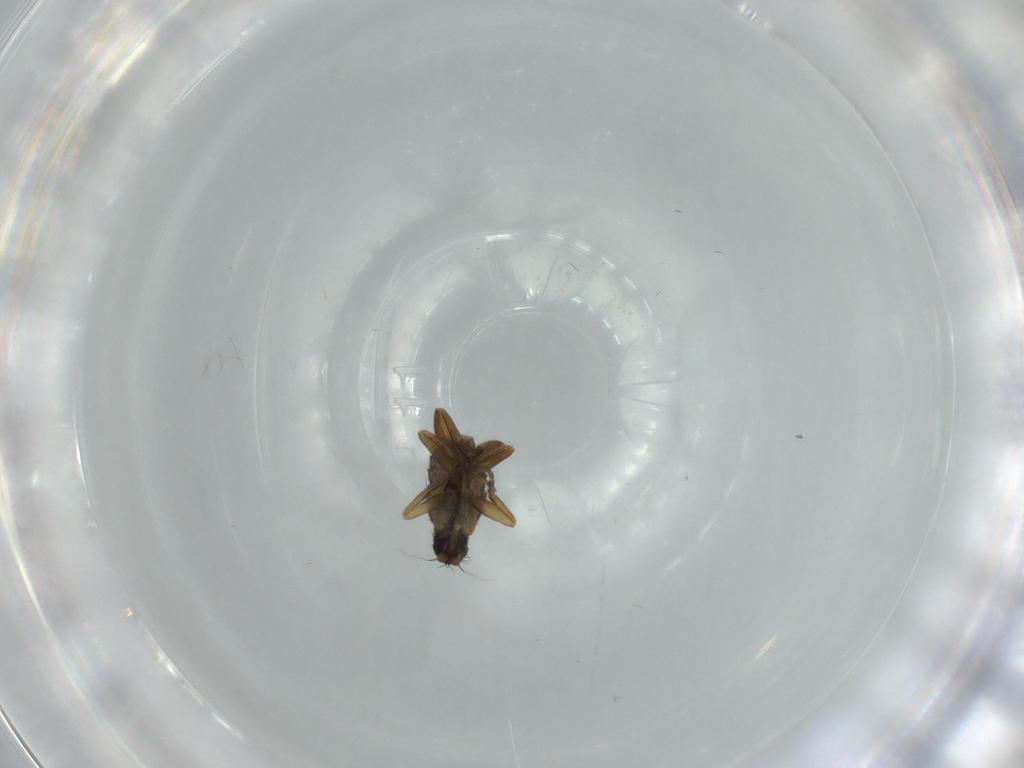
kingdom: Animalia
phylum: Arthropoda
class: Insecta
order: Diptera
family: Phoridae
